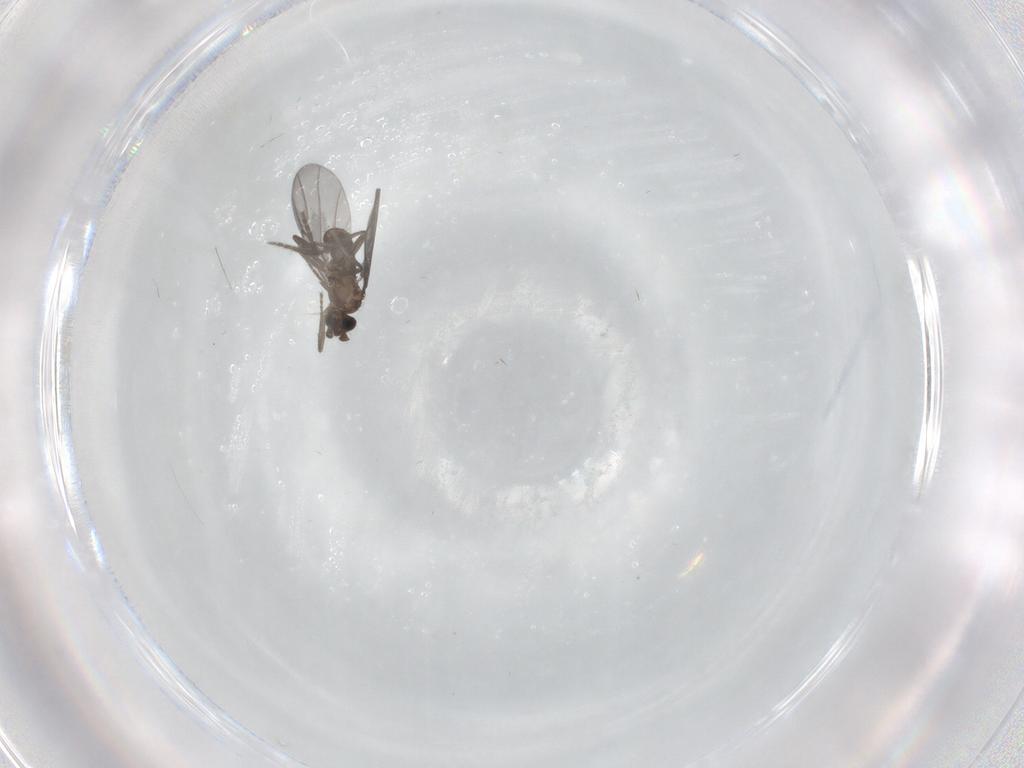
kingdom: Animalia
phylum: Arthropoda
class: Insecta
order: Diptera
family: Phoridae
